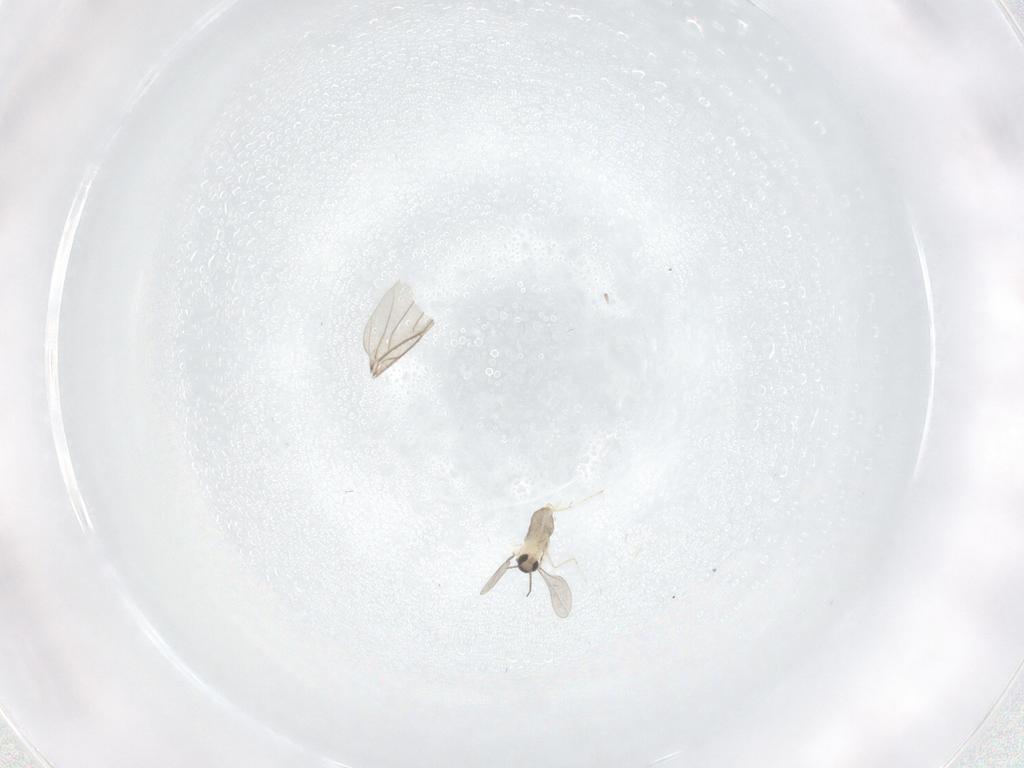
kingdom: Animalia
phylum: Arthropoda
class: Insecta
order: Diptera
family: Cecidomyiidae
